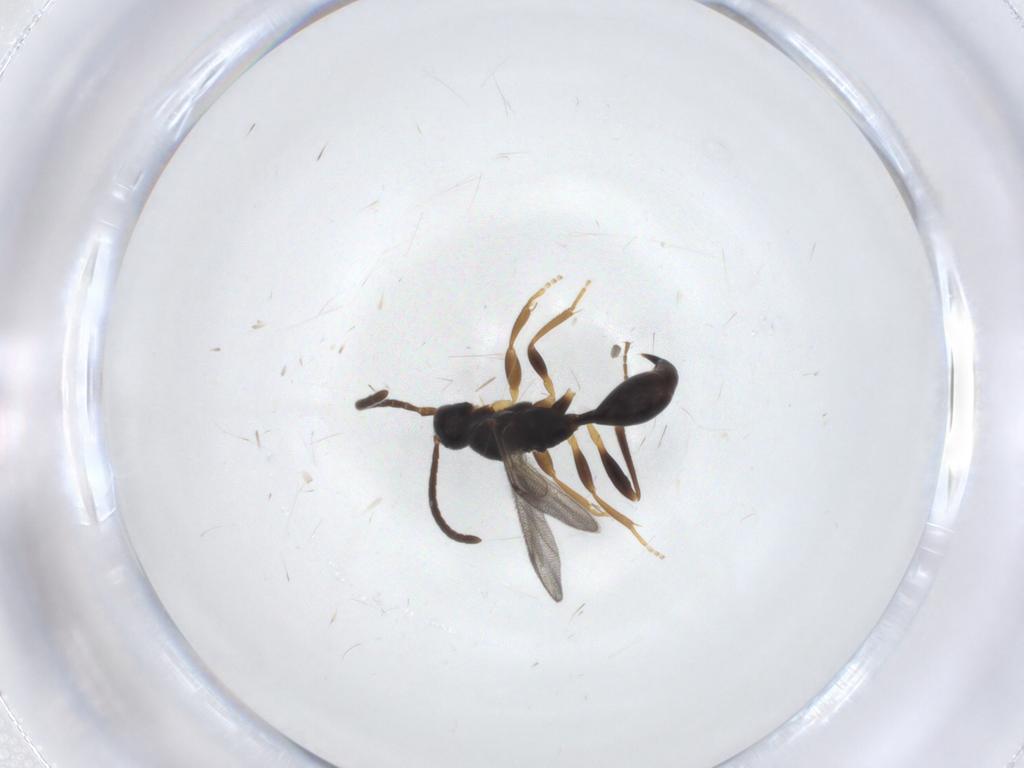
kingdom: Animalia
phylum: Arthropoda
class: Insecta
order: Hymenoptera
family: Proctotrupidae
